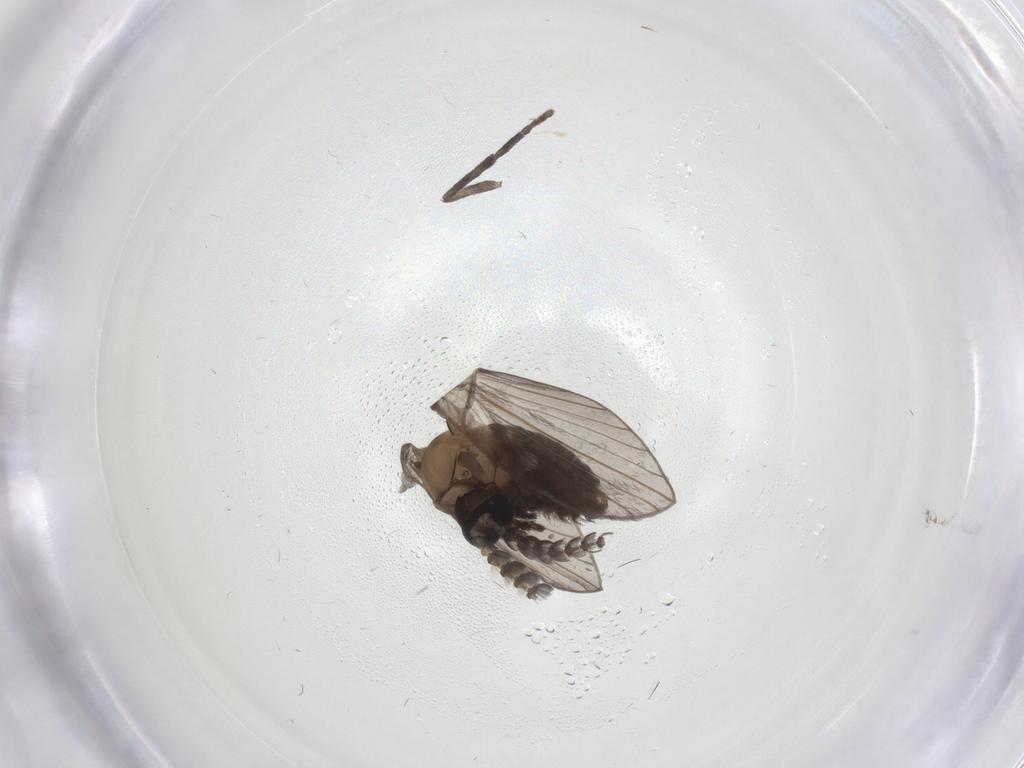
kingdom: Animalia
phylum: Arthropoda
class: Insecta
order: Diptera
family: Psychodidae
